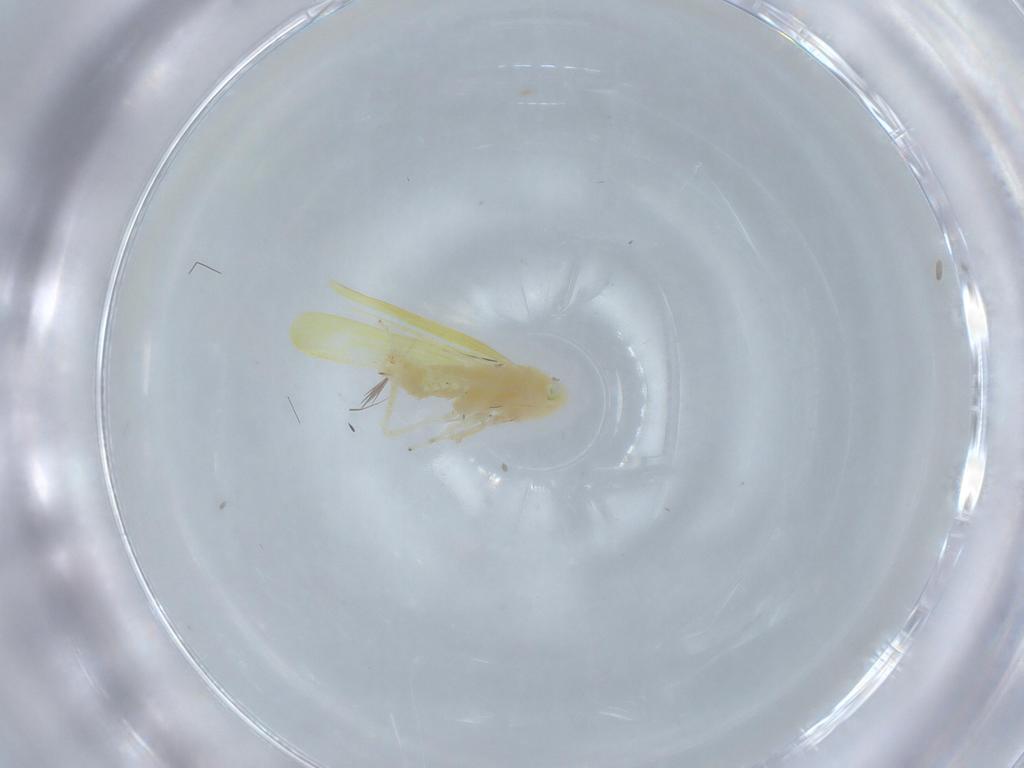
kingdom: Animalia
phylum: Arthropoda
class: Insecta
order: Hemiptera
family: Cicadellidae
